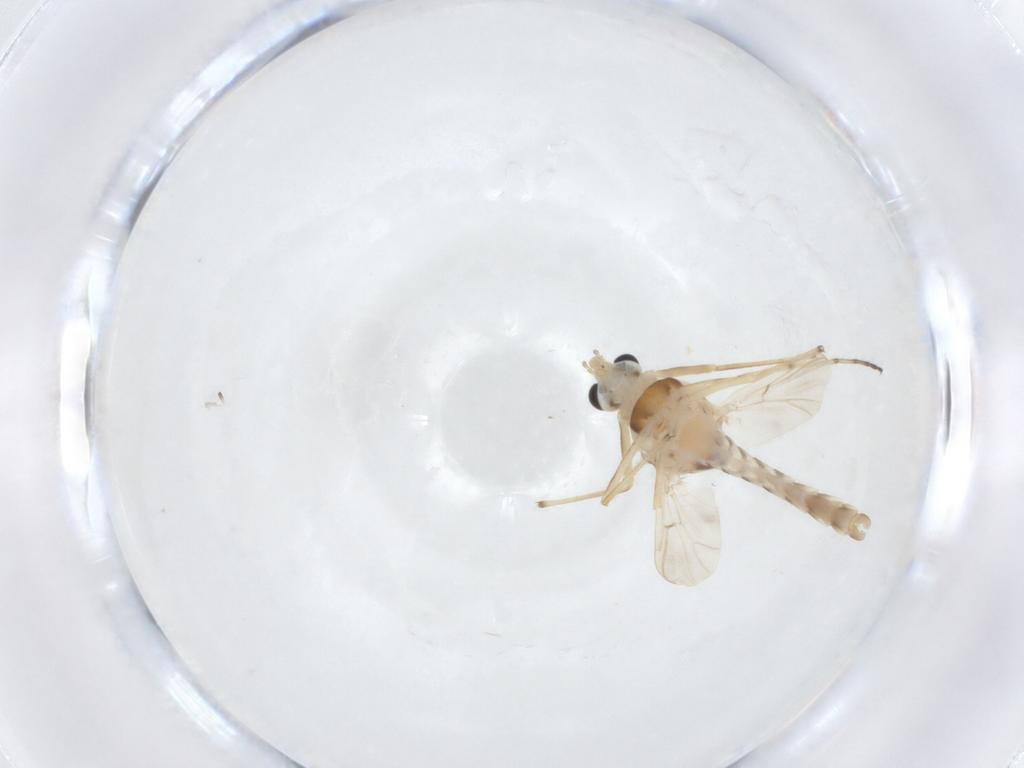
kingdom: Animalia
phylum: Arthropoda
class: Insecta
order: Diptera
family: Chironomidae
